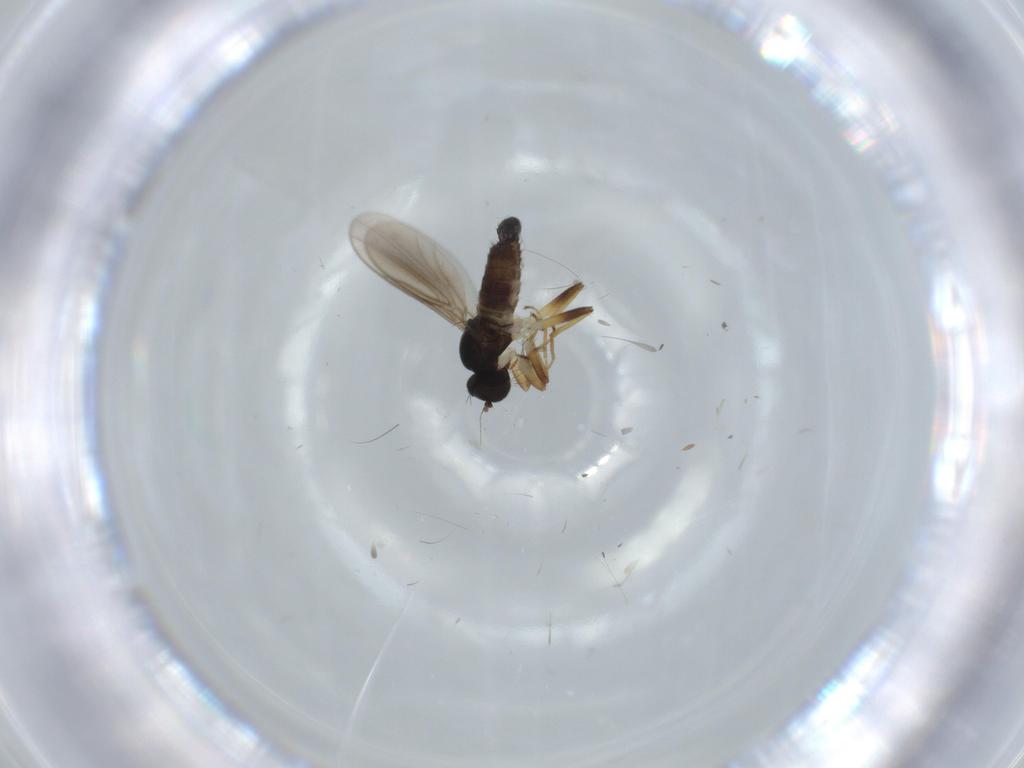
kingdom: Animalia
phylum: Arthropoda
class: Insecta
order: Diptera
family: Hybotidae
